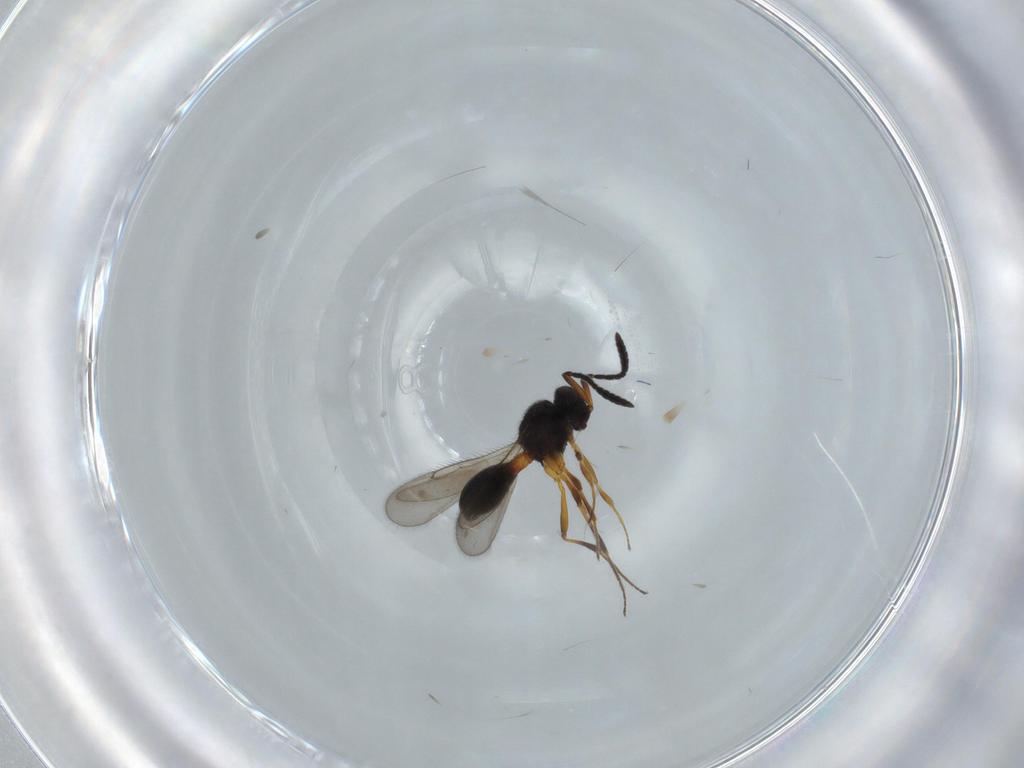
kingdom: Animalia
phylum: Arthropoda
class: Insecta
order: Hymenoptera
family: Scelionidae
